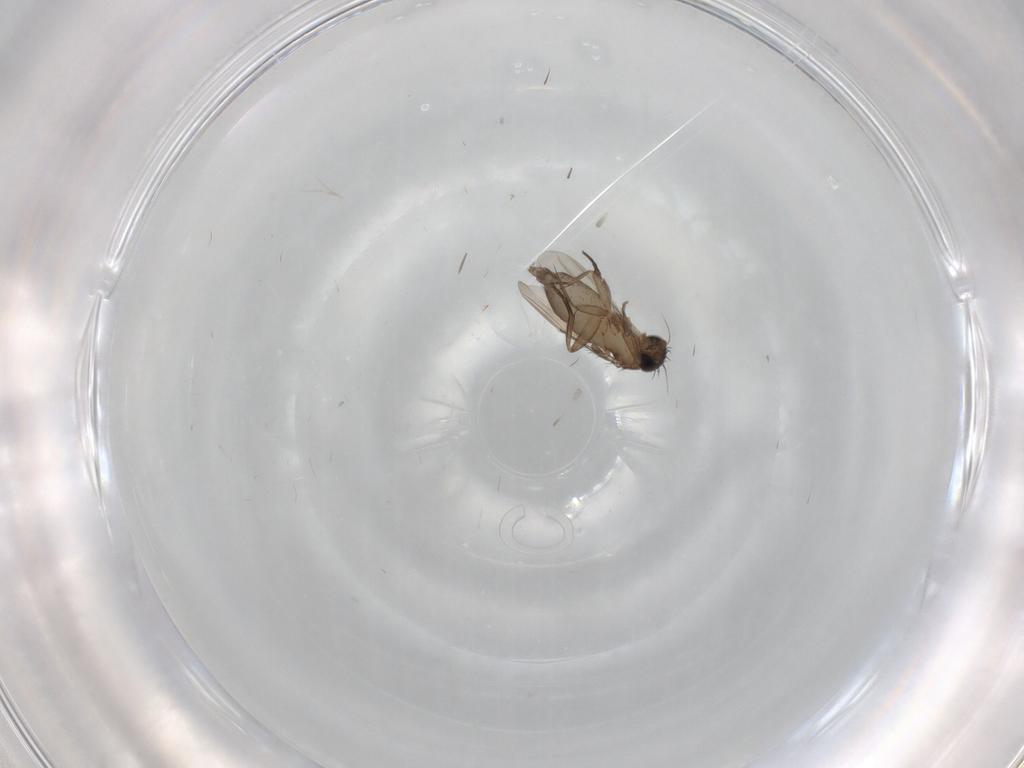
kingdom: Animalia
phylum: Arthropoda
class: Insecta
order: Diptera
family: Phoridae
